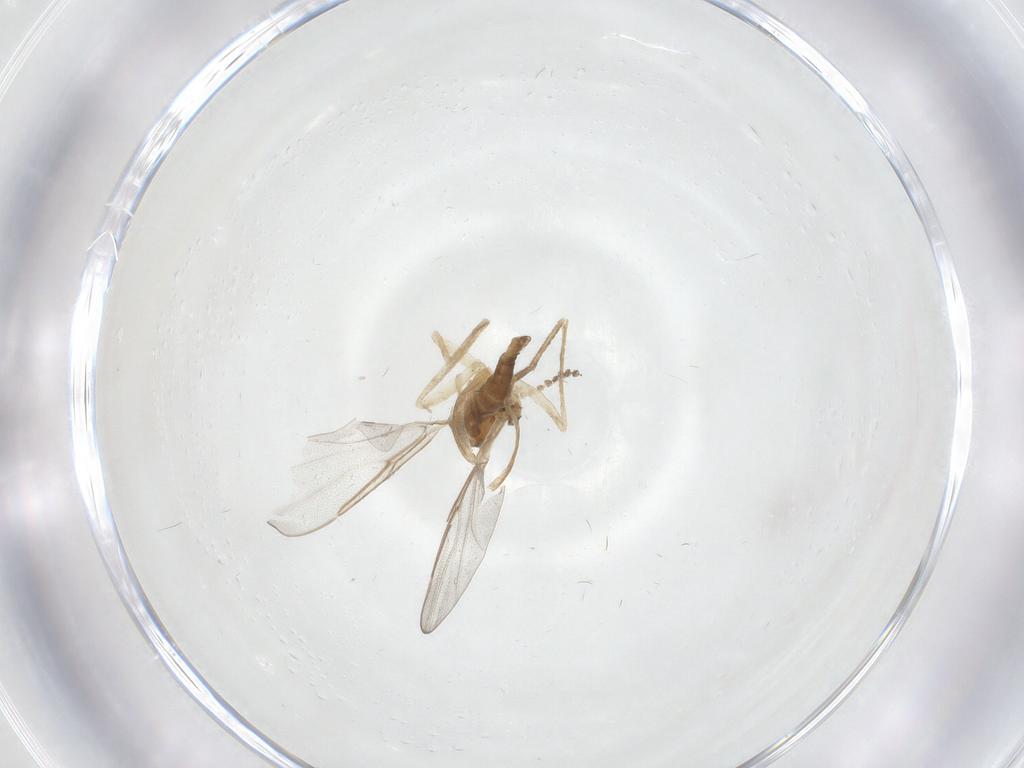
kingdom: Animalia
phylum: Arthropoda
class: Insecta
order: Diptera
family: Cecidomyiidae
